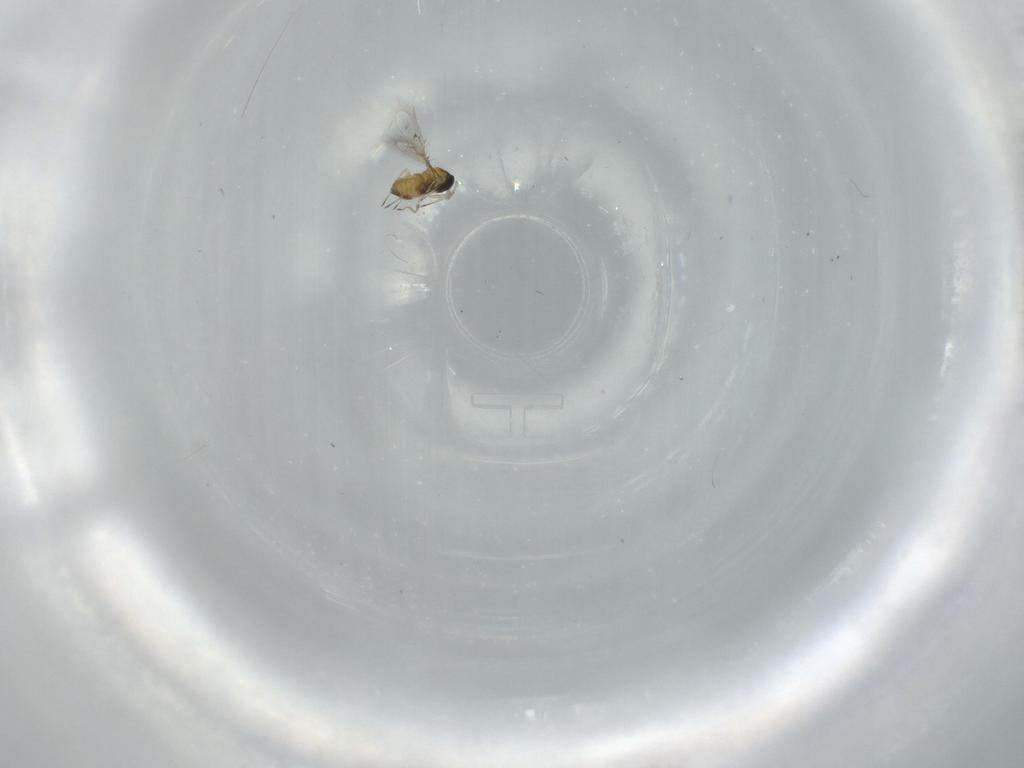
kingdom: Animalia
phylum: Arthropoda
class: Insecta
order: Hymenoptera
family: Trichogrammatidae
